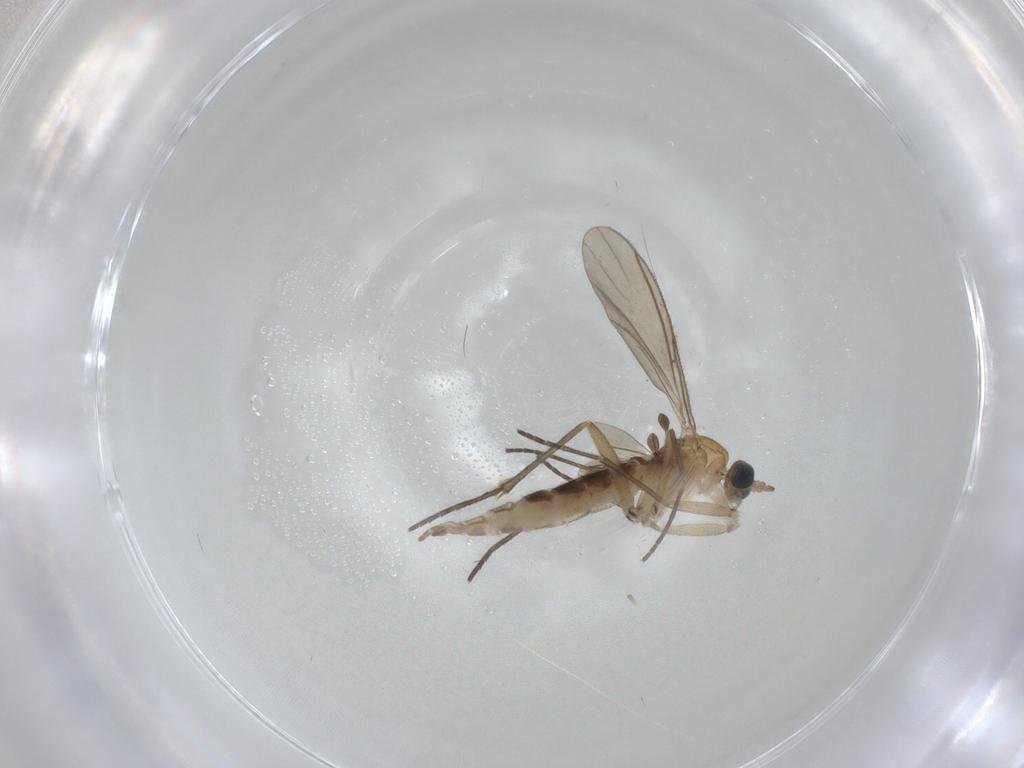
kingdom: Animalia
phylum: Arthropoda
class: Insecta
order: Diptera
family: Sciaridae
